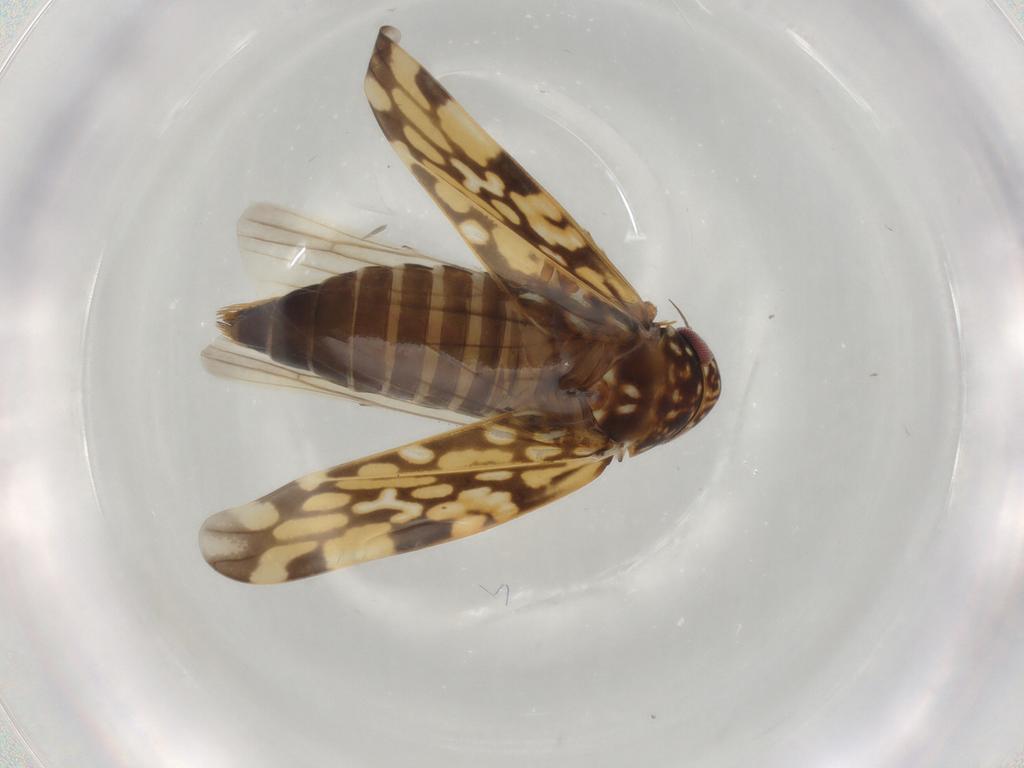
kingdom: Animalia
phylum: Arthropoda
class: Insecta
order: Hemiptera
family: Cicadellidae
